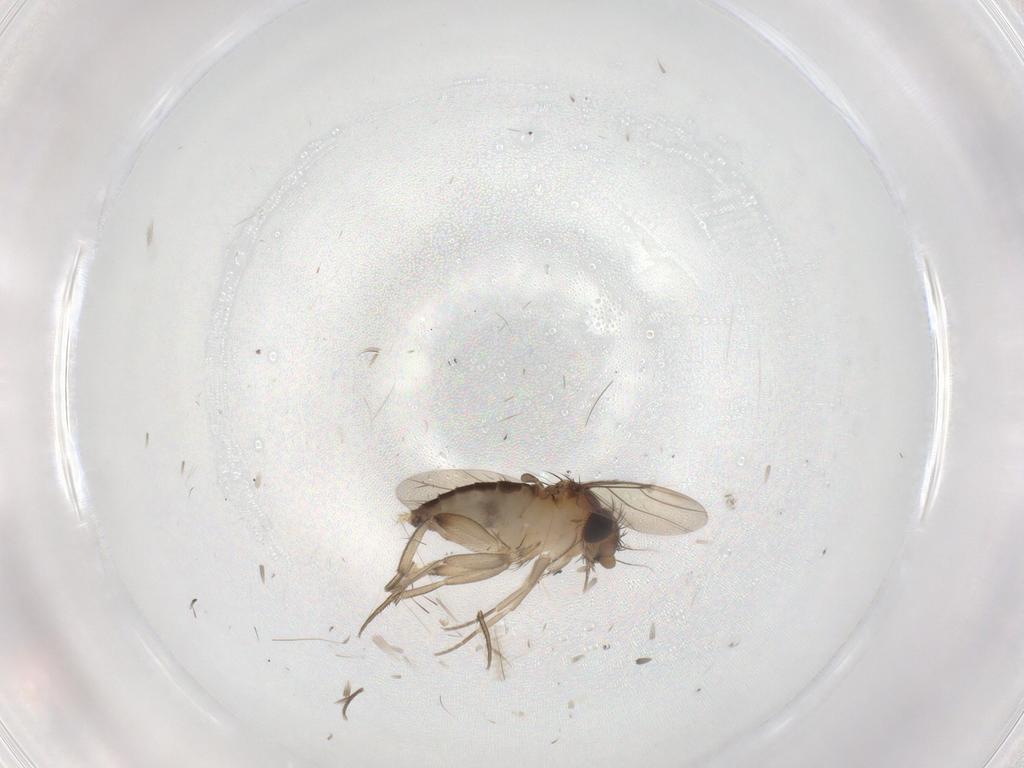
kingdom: Animalia
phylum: Arthropoda
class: Insecta
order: Diptera
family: Phoridae
